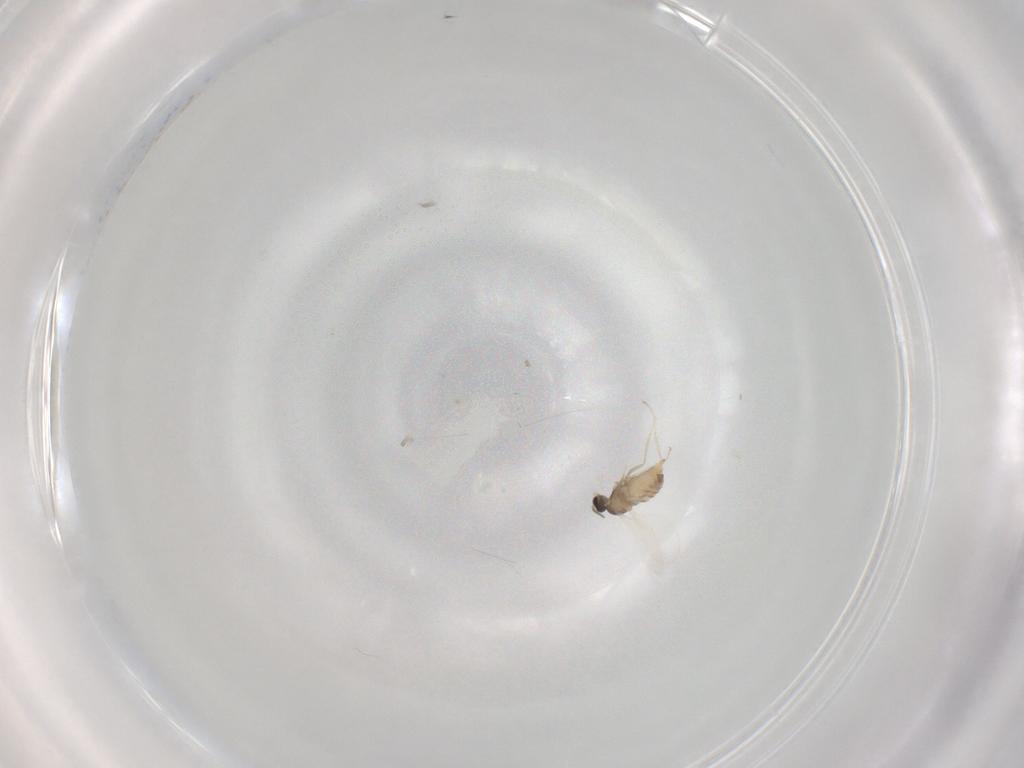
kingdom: Animalia
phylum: Arthropoda
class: Insecta
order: Diptera
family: Cecidomyiidae
